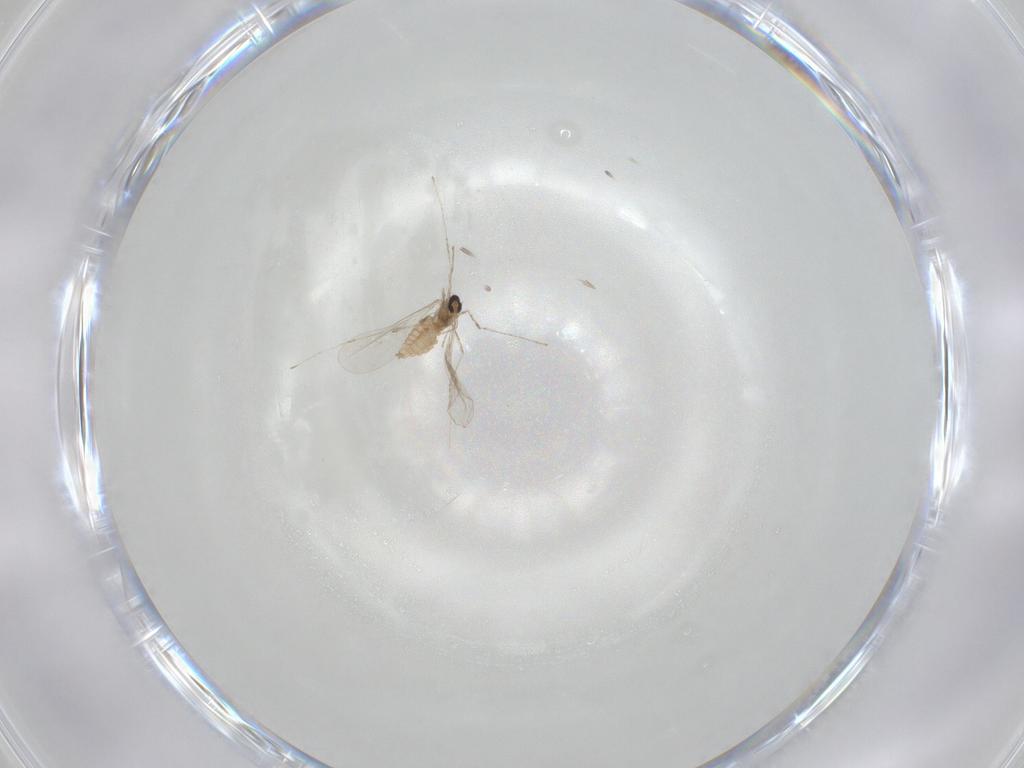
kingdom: Animalia
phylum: Arthropoda
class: Insecta
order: Diptera
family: Cecidomyiidae
